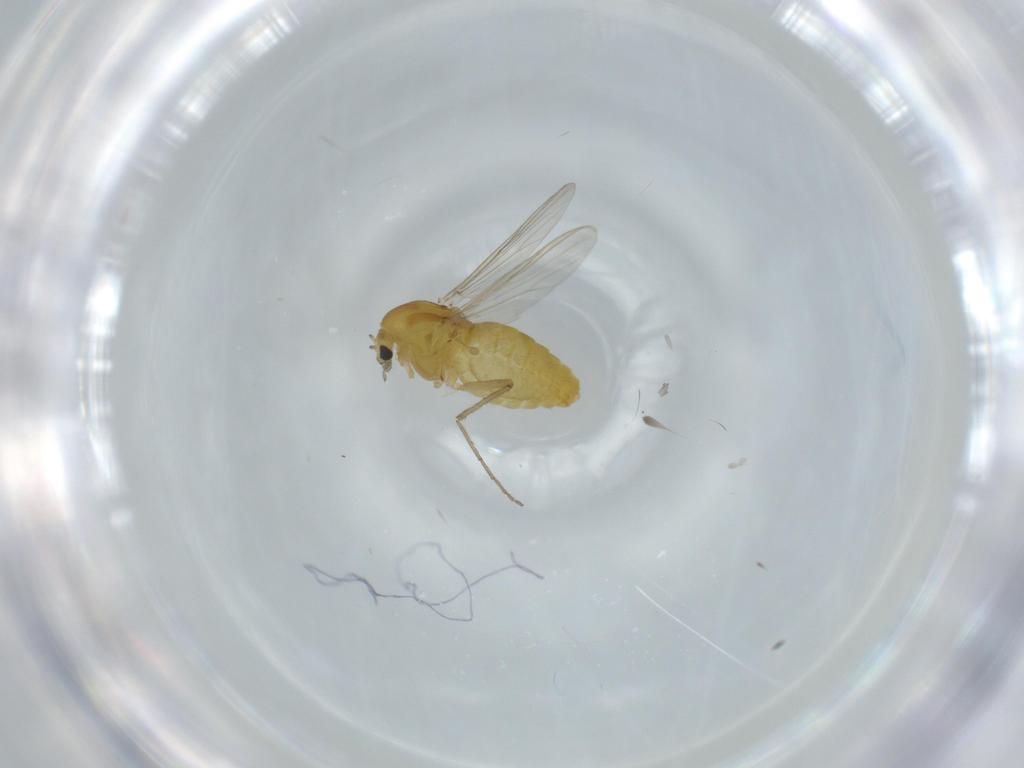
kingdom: Animalia
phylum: Arthropoda
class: Insecta
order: Diptera
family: Chironomidae
